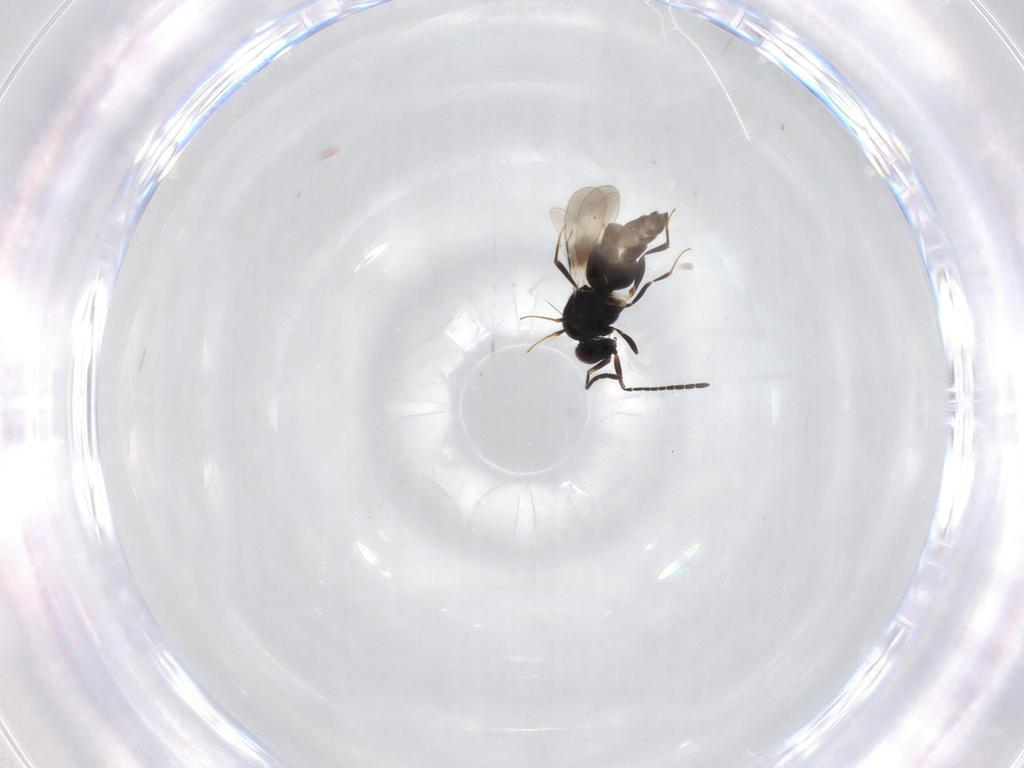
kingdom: Animalia
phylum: Arthropoda
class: Insecta
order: Hymenoptera
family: Ceraphronidae
